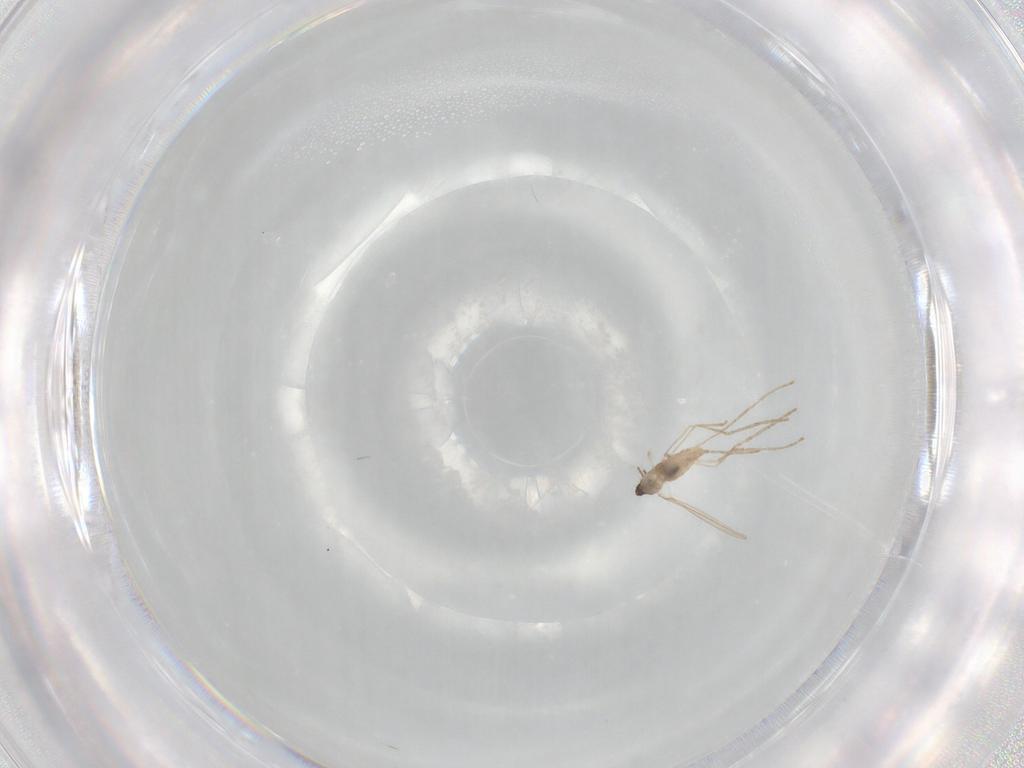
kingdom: Animalia
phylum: Arthropoda
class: Insecta
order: Diptera
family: Cecidomyiidae
